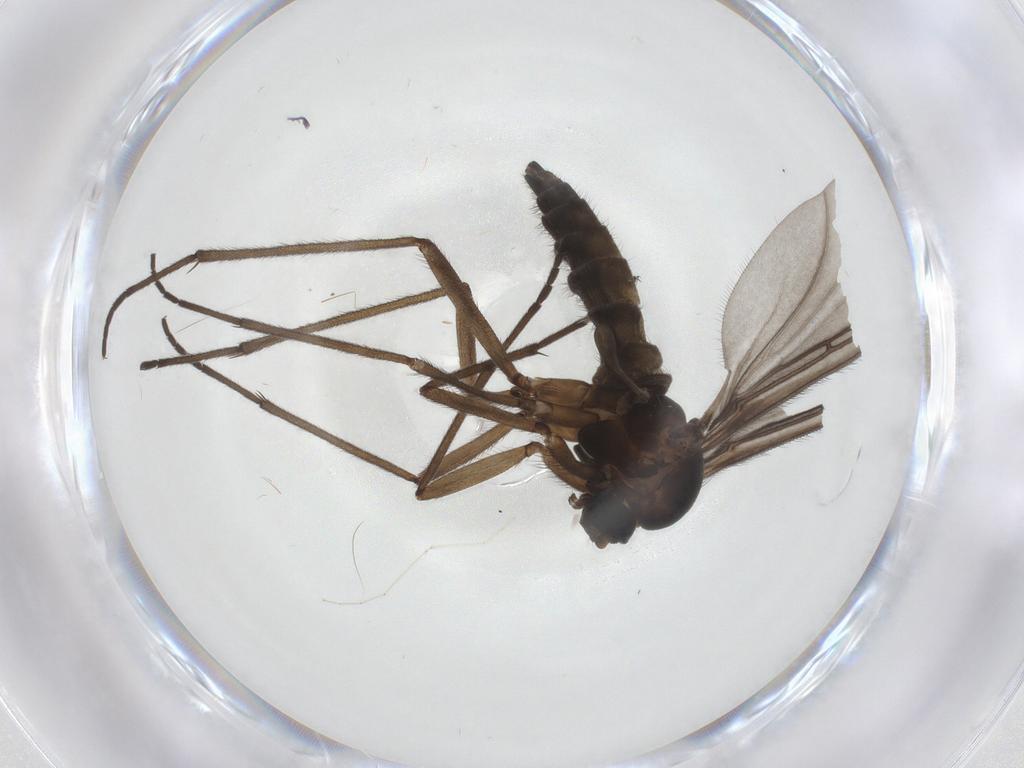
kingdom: Animalia
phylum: Arthropoda
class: Insecta
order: Diptera
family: Sciaridae
